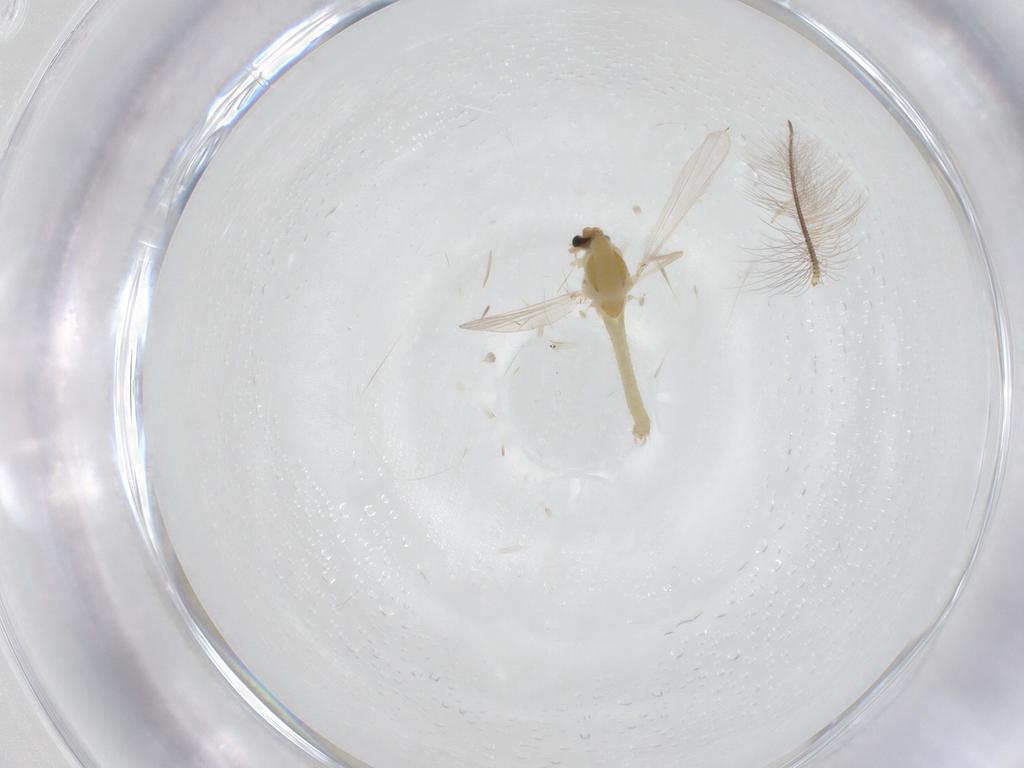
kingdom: Animalia
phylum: Arthropoda
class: Insecta
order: Diptera
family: Chironomidae
